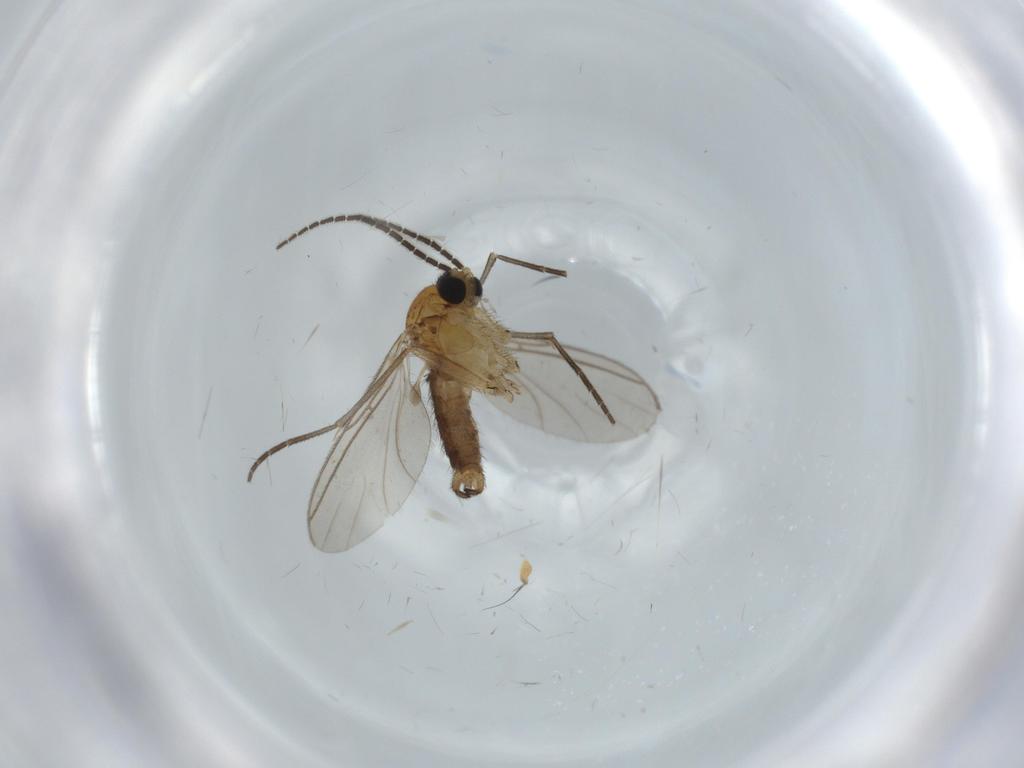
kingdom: Animalia
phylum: Arthropoda
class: Insecta
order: Diptera
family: Sciaridae
